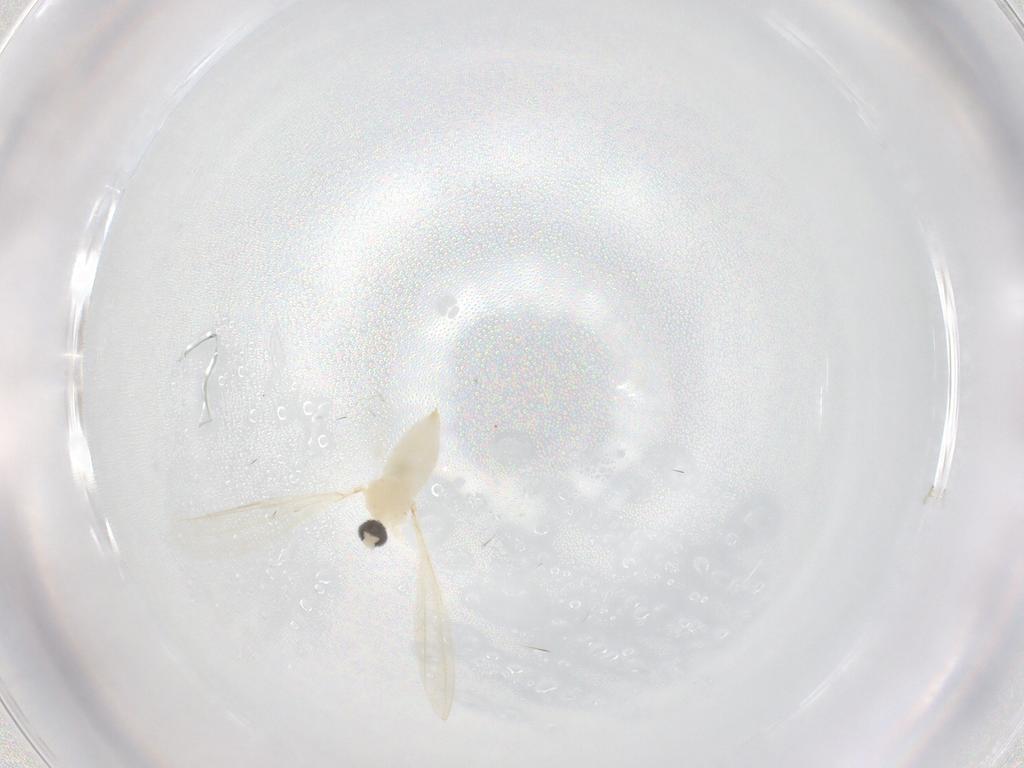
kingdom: Animalia
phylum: Arthropoda
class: Insecta
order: Diptera
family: Cecidomyiidae
